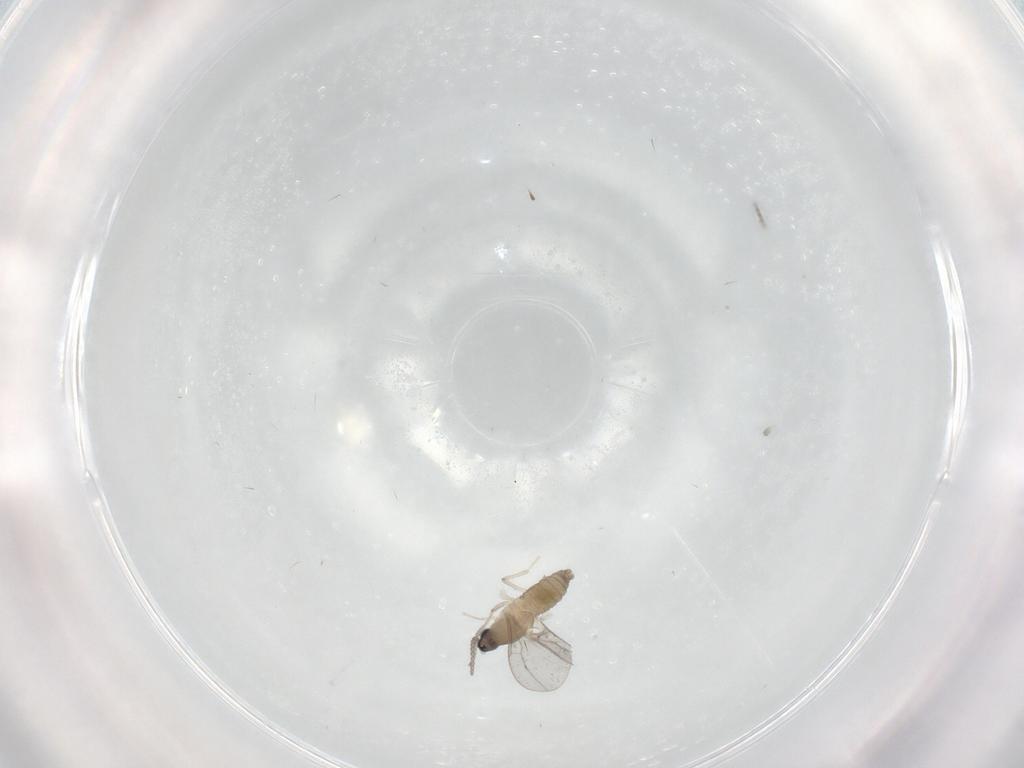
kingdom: Animalia
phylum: Arthropoda
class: Insecta
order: Diptera
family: Cecidomyiidae
